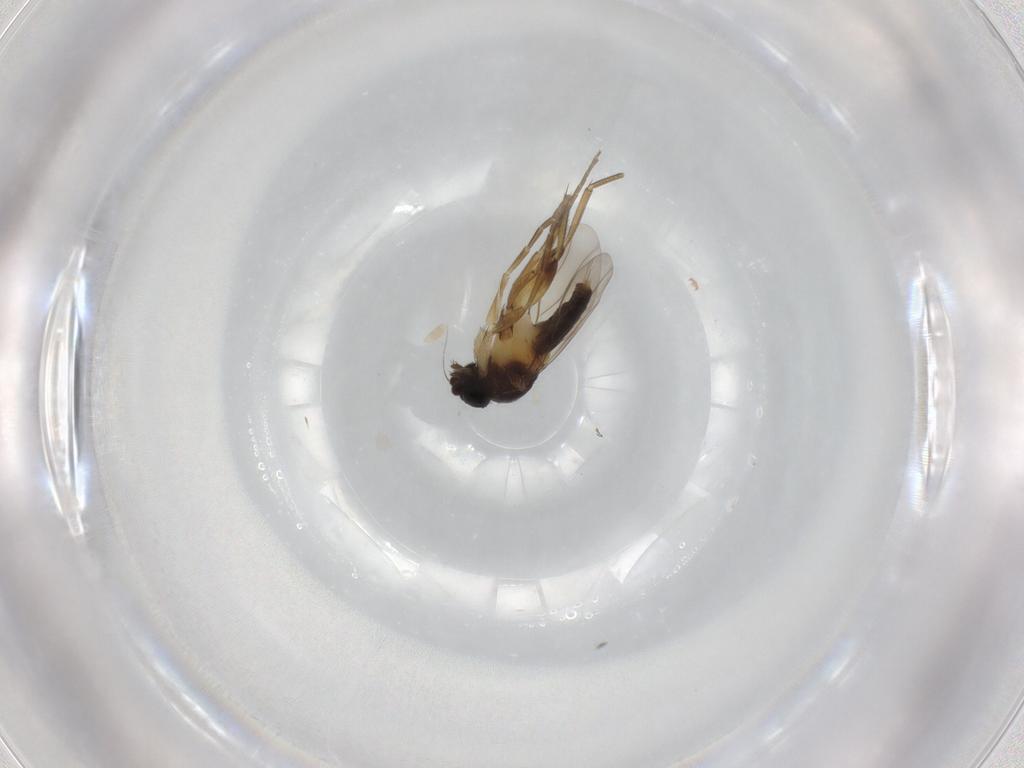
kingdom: Animalia
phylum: Arthropoda
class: Insecta
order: Diptera
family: Phoridae
